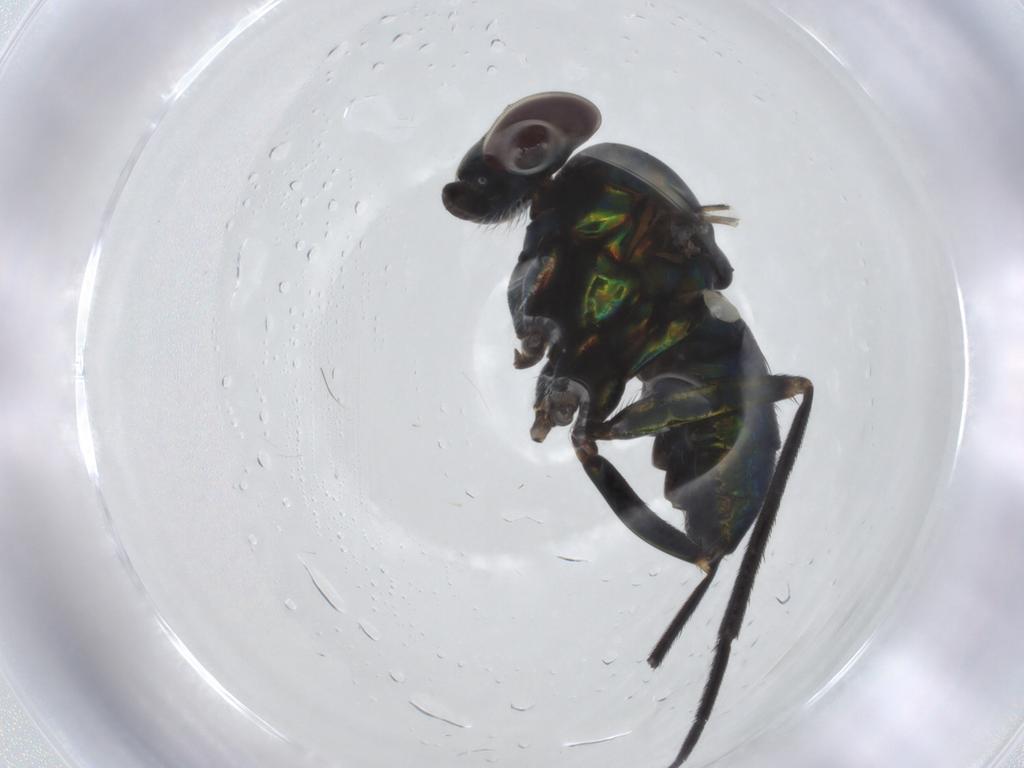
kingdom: Animalia
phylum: Arthropoda
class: Insecta
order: Diptera
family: Dolichopodidae
